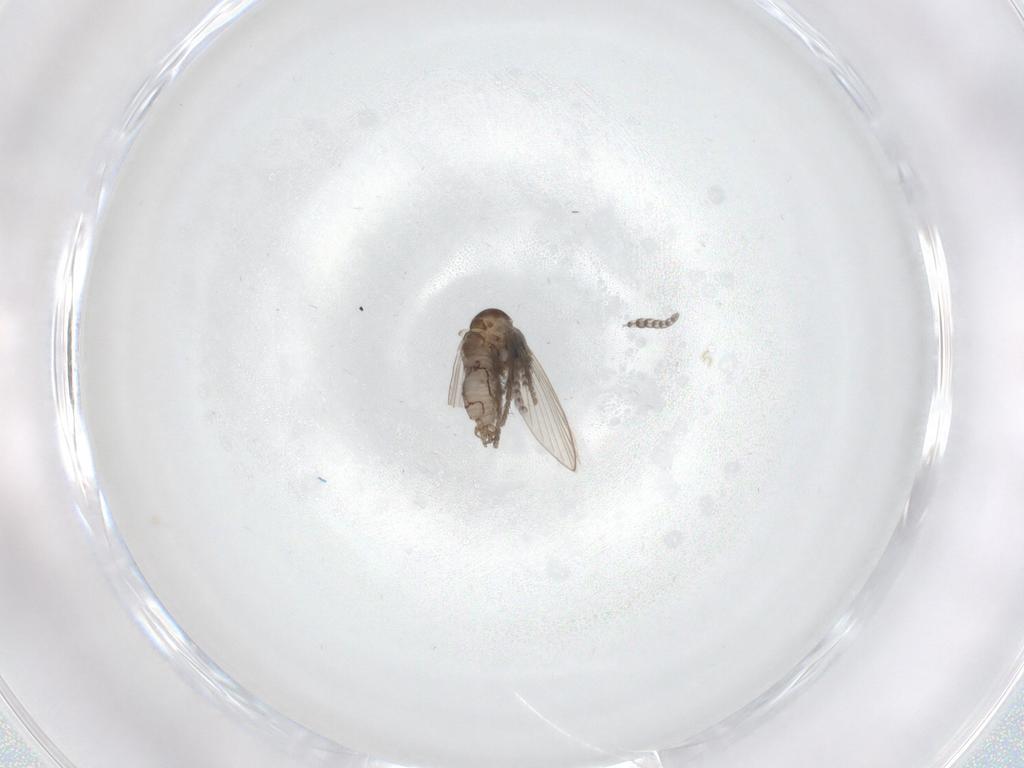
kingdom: Animalia
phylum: Arthropoda
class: Insecta
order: Diptera
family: Psychodidae
